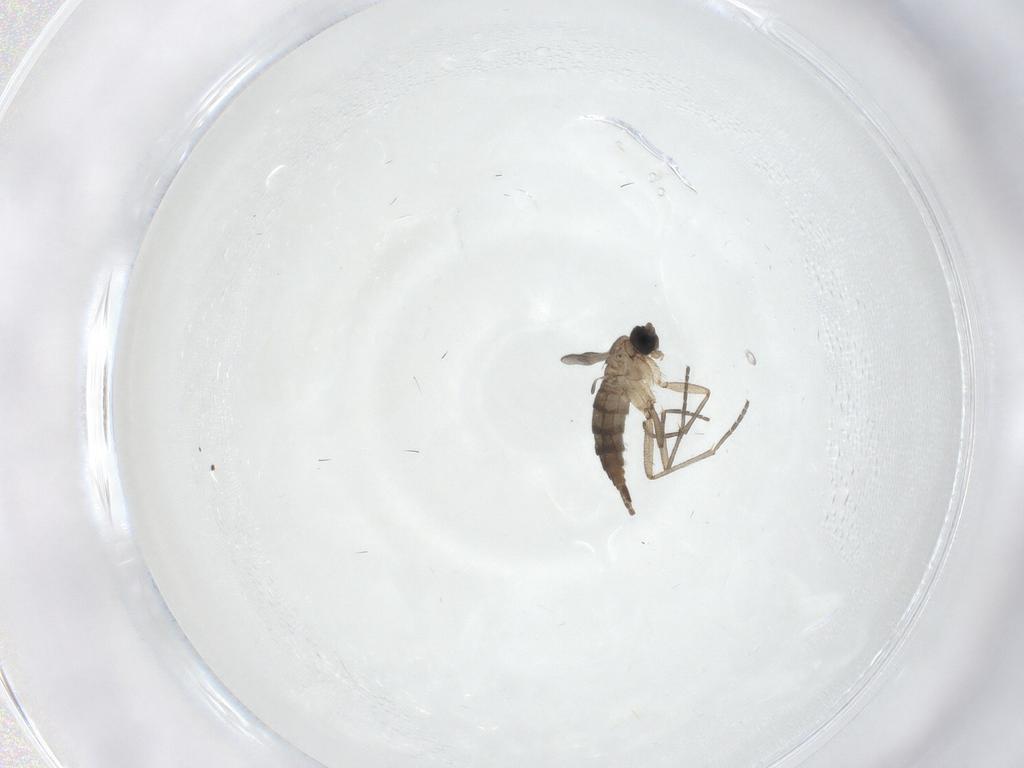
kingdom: Animalia
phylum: Arthropoda
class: Insecta
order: Diptera
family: Sciaridae
